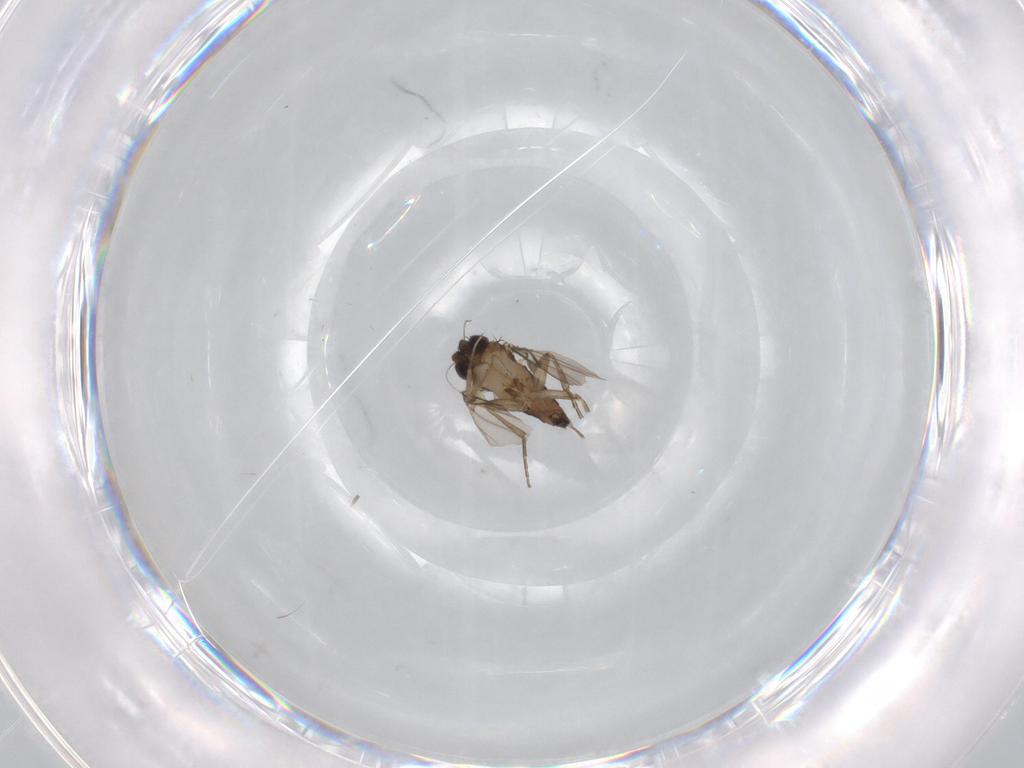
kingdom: Animalia
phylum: Arthropoda
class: Insecta
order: Diptera
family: Phoridae
